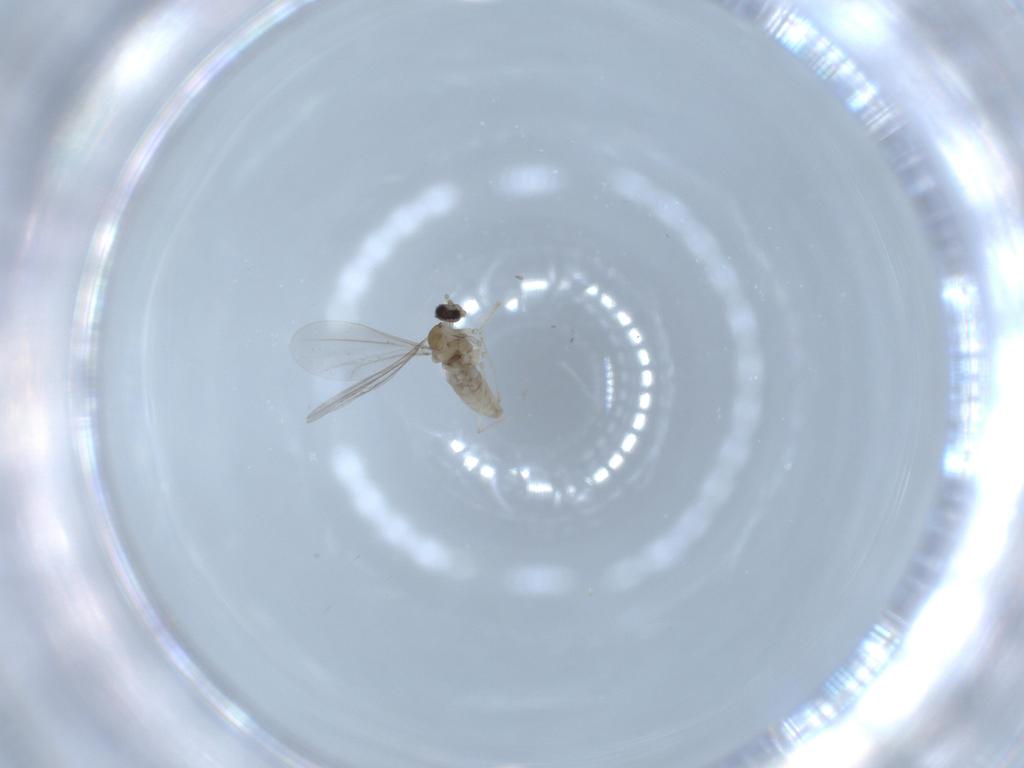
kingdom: Animalia
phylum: Arthropoda
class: Insecta
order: Diptera
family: Cecidomyiidae
